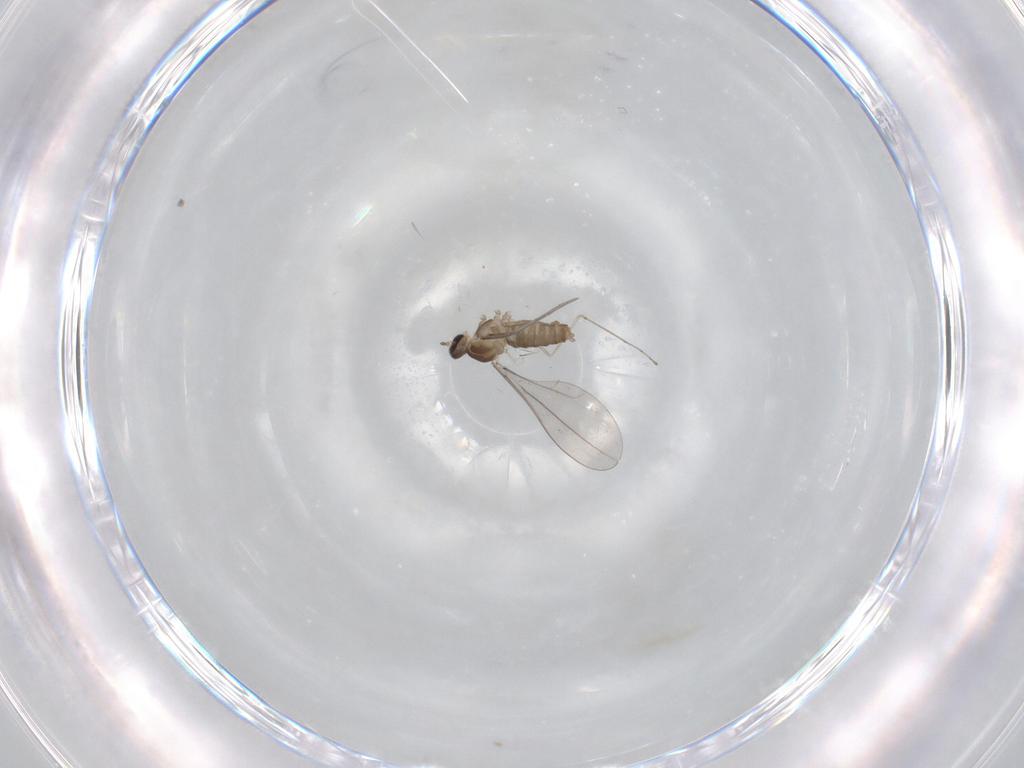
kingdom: Animalia
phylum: Arthropoda
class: Insecta
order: Diptera
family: Cecidomyiidae
